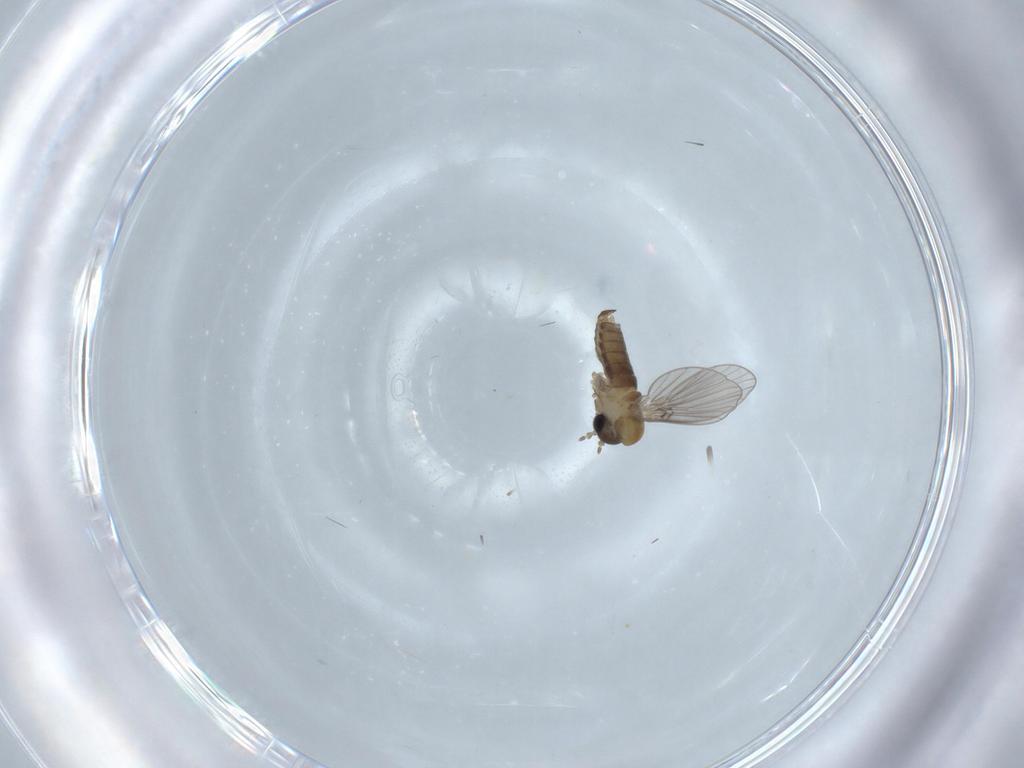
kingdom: Animalia
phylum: Arthropoda
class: Insecta
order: Diptera
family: Psychodidae
